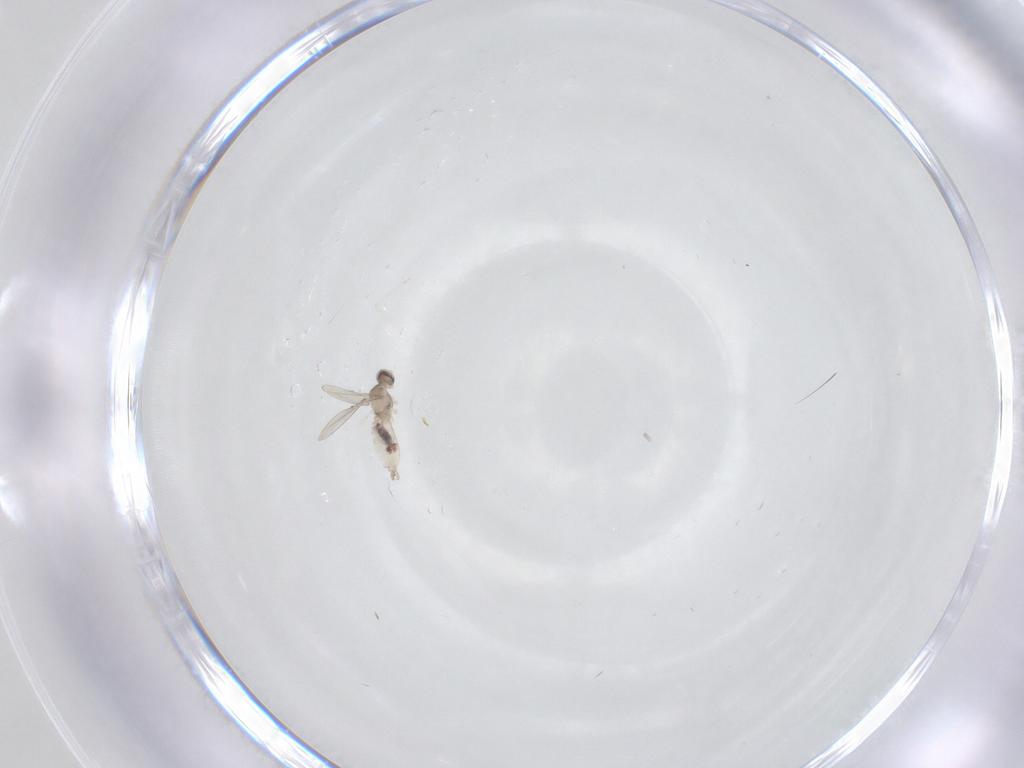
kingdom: Animalia
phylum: Arthropoda
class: Insecta
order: Diptera
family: Cecidomyiidae
